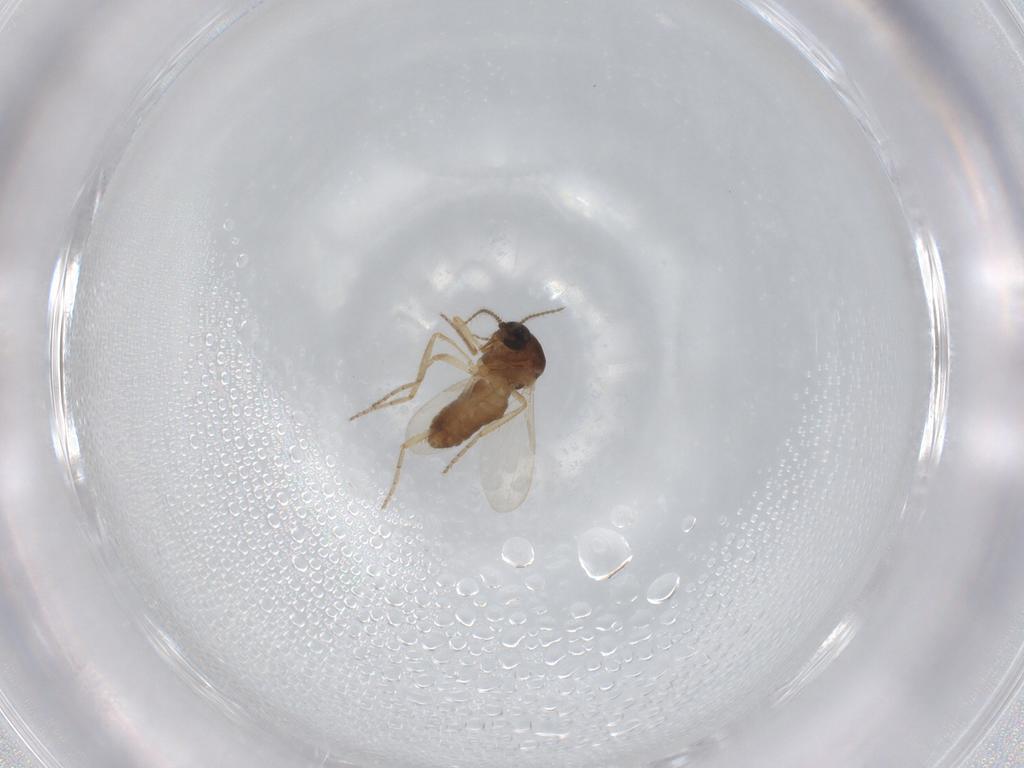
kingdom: Animalia
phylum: Arthropoda
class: Insecta
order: Diptera
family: Ceratopogonidae
